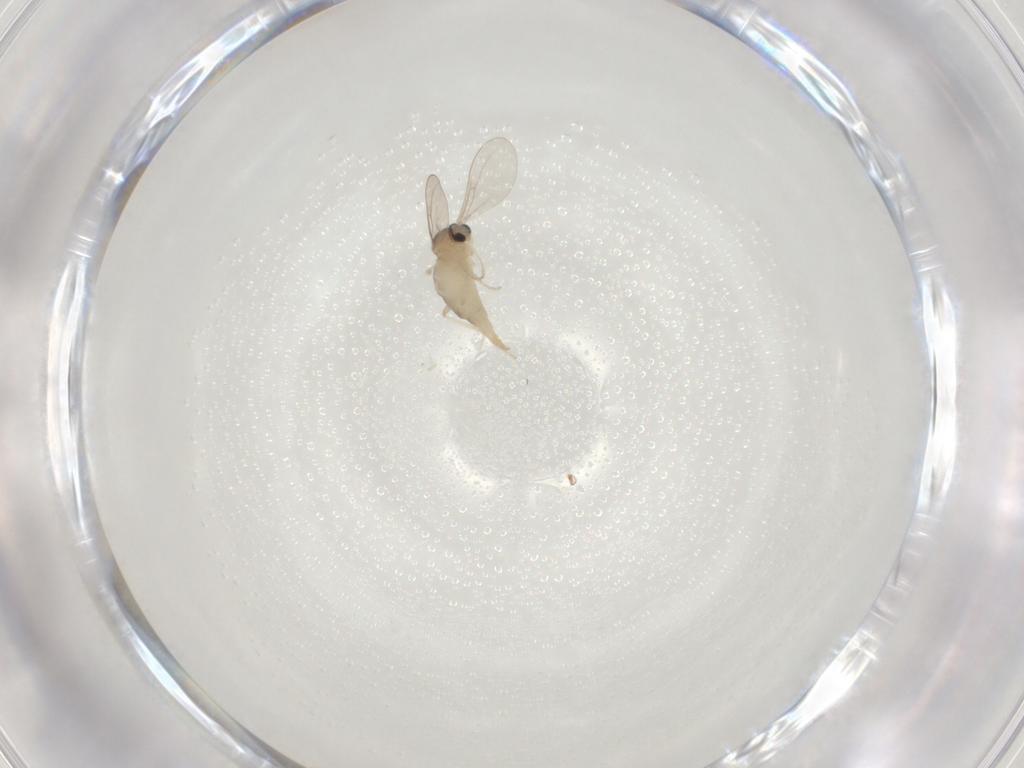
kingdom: Animalia
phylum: Arthropoda
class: Insecta
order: Diptera
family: Cecidomyiidae
